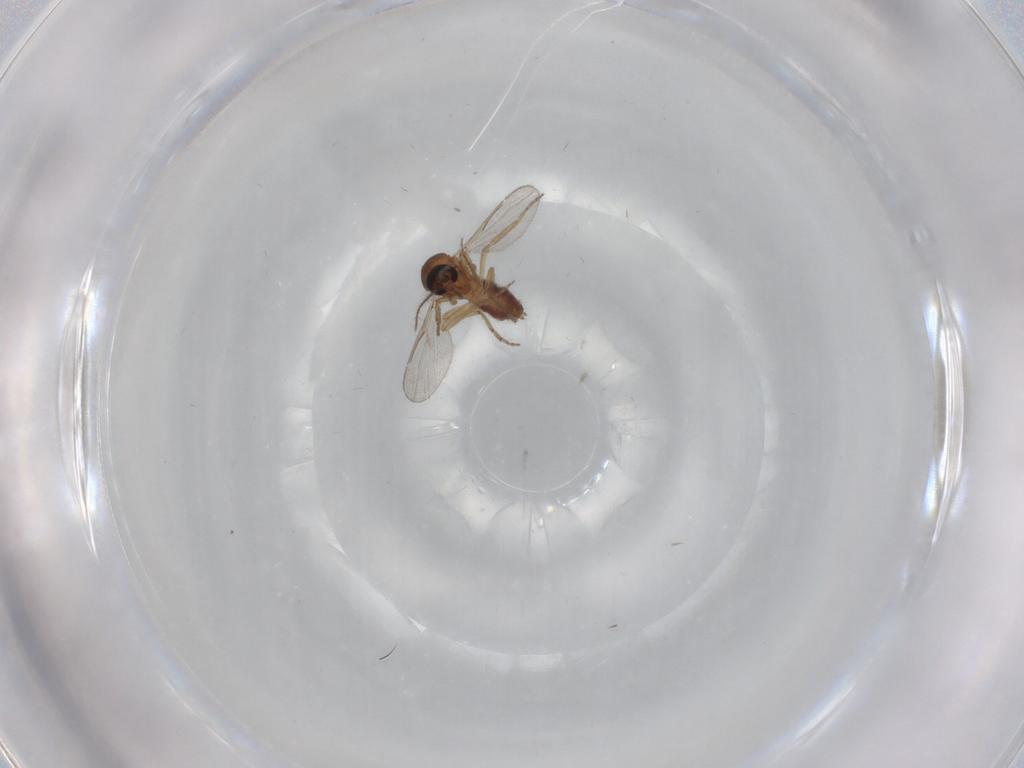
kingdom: Animalia
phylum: Arthropoda
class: Insecta
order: Diptera
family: Ceratopogonidae
